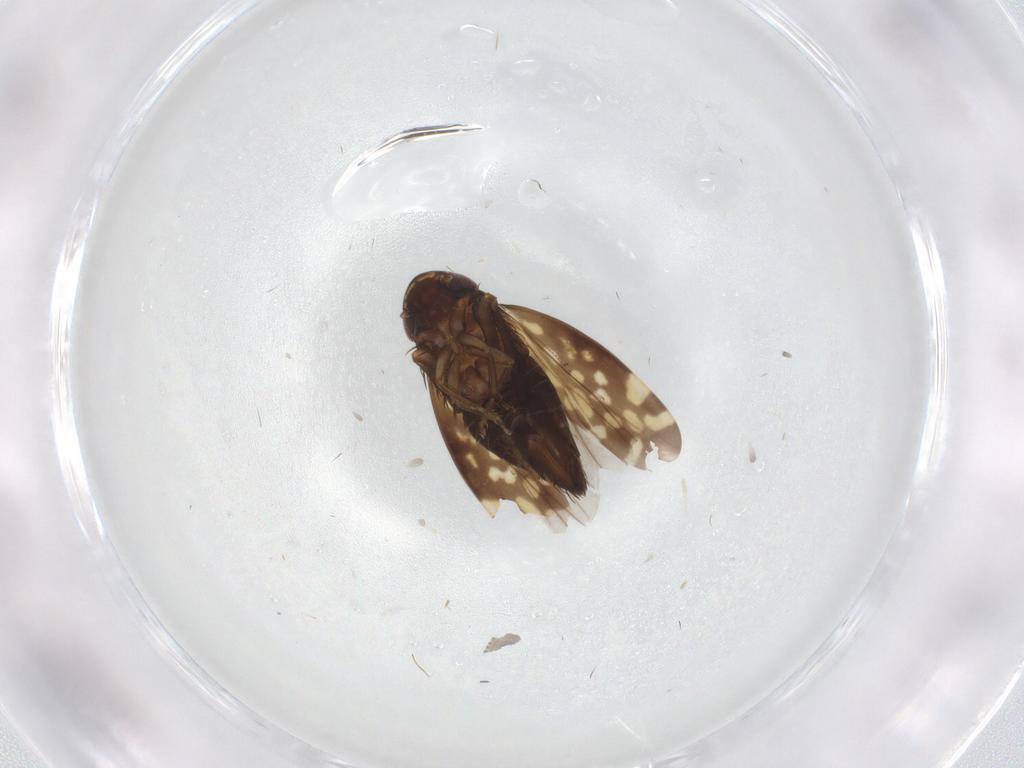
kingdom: Animalia
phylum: Arthropoda
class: Insecta
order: Hemiptera
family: Cicadellidae
